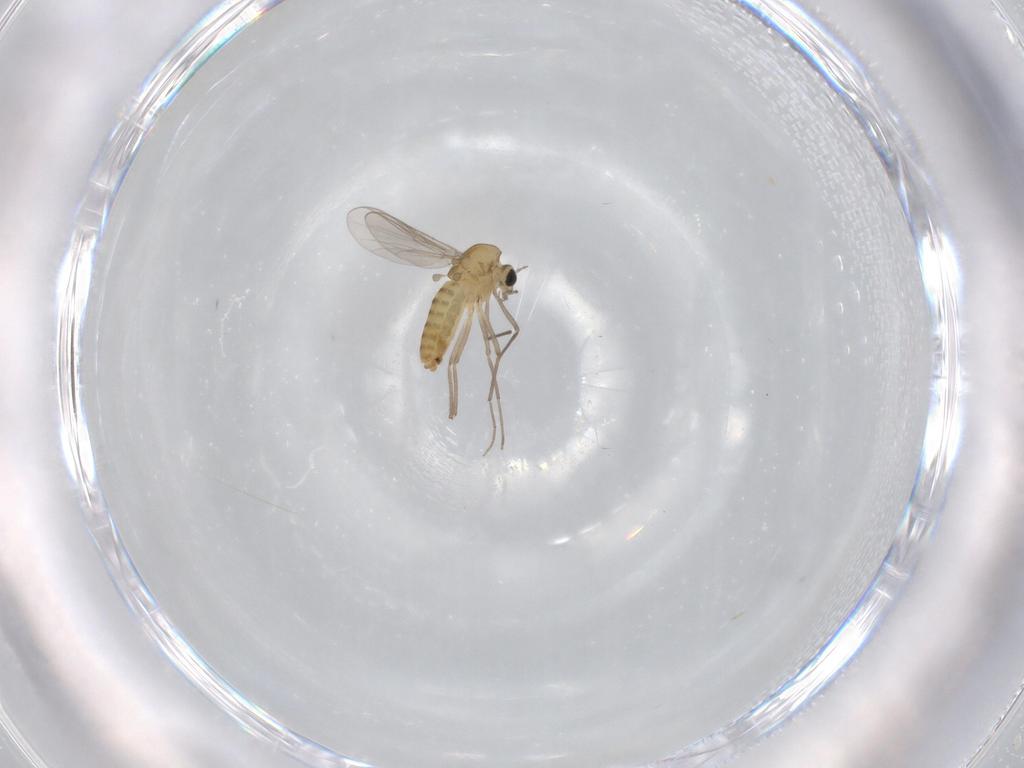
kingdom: Animalia
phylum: Arthropoda
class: Insecta
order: Diptera
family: Chironomidae
